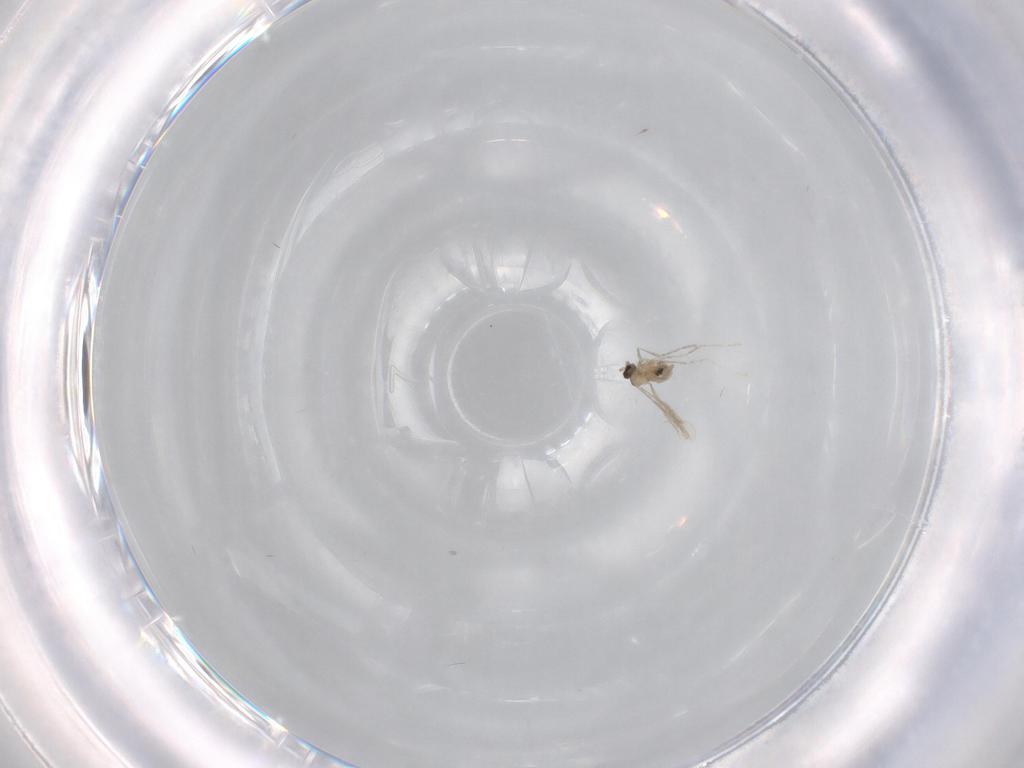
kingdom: Animalia
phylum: Arthropoda
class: Insecta
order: Diptera
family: Cecidomyiidae
